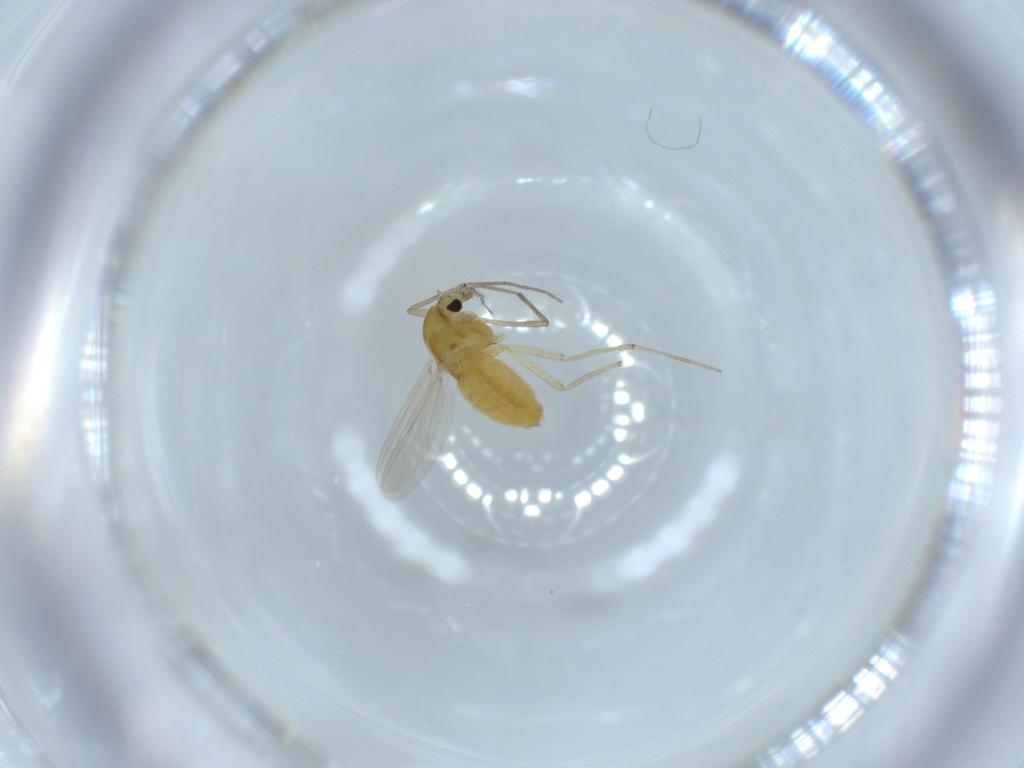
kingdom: Animalia
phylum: Arthropoda
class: Insecta
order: Diptera
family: Chironomidae
